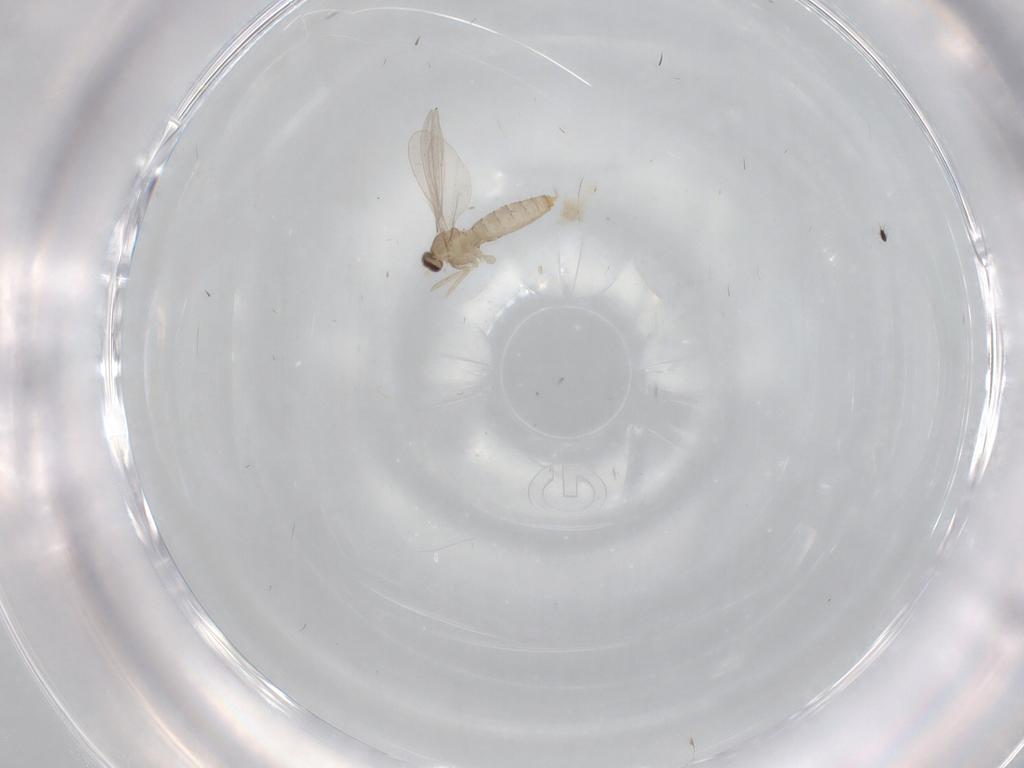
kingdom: Animalia
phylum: Arthropoda
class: Insecta
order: Diptera
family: Cecidomyiidae
